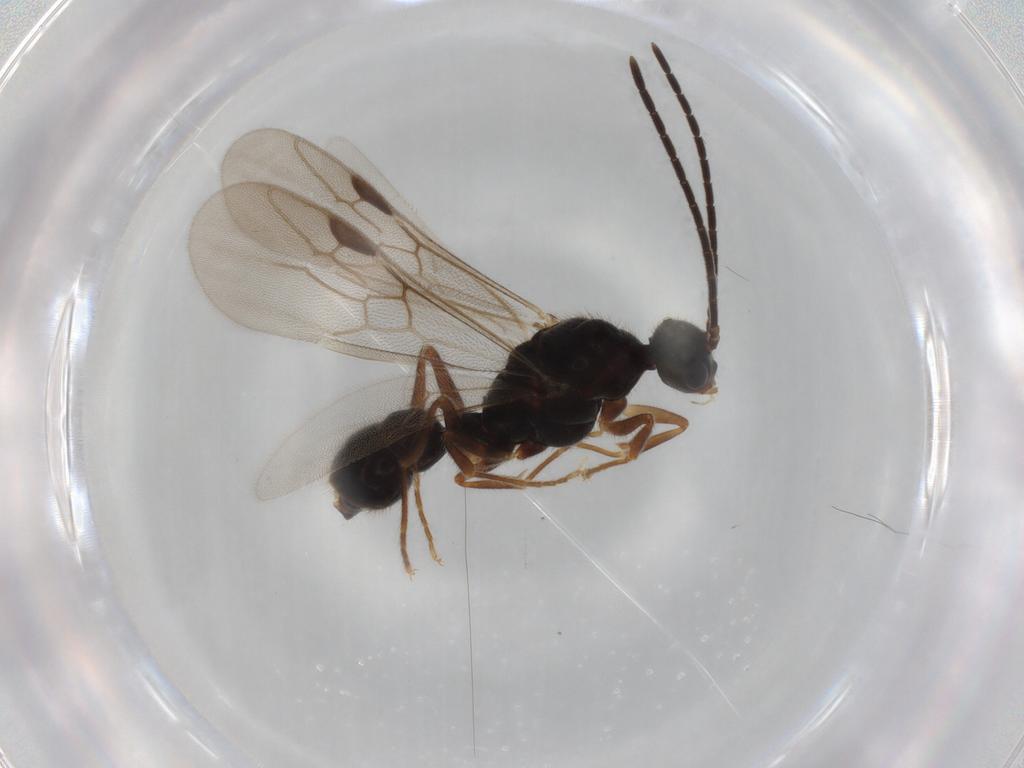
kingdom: Animalia
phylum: Arthropoda
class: Insecta
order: Hymenoptera
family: Formicidae
